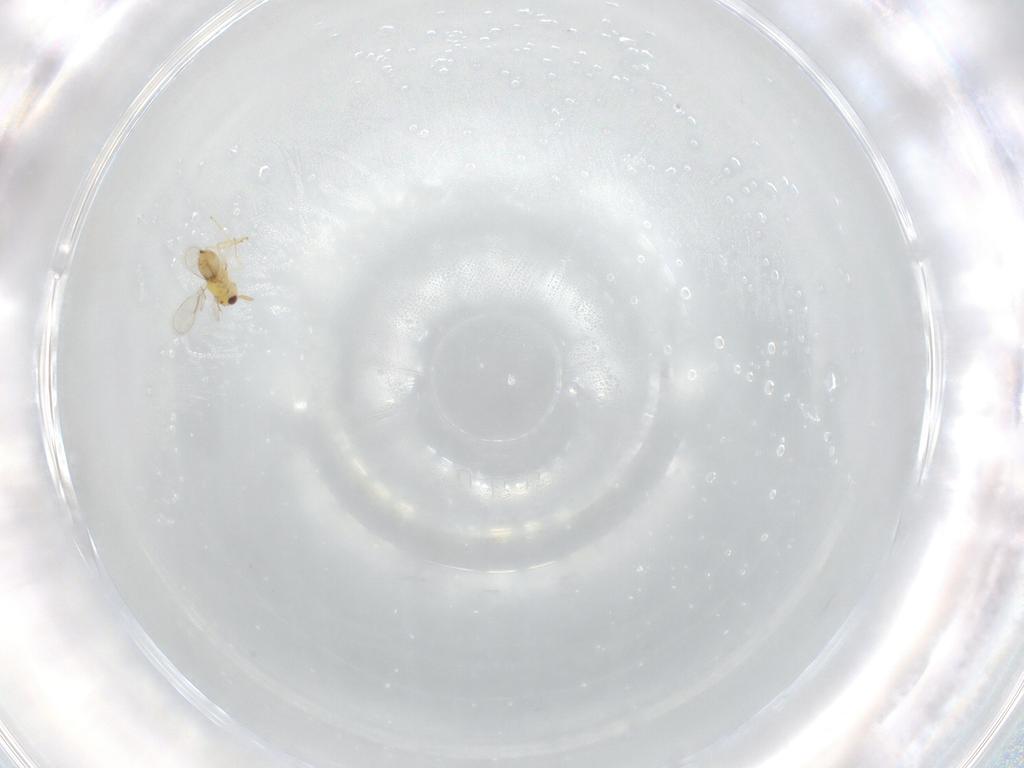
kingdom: Animalia
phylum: Arthropoda
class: Insecta
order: Hymenoptera
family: Aphelinidae
